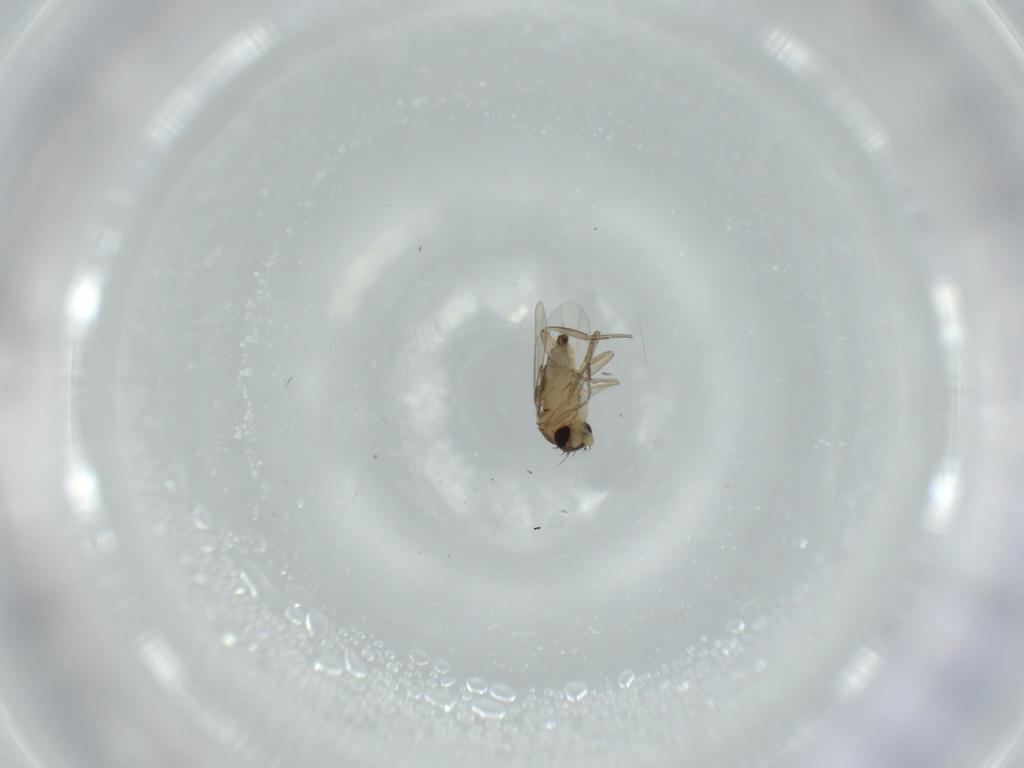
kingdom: Animalia
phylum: Arthropoda
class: Insecta
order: Diptera
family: Phoridae
